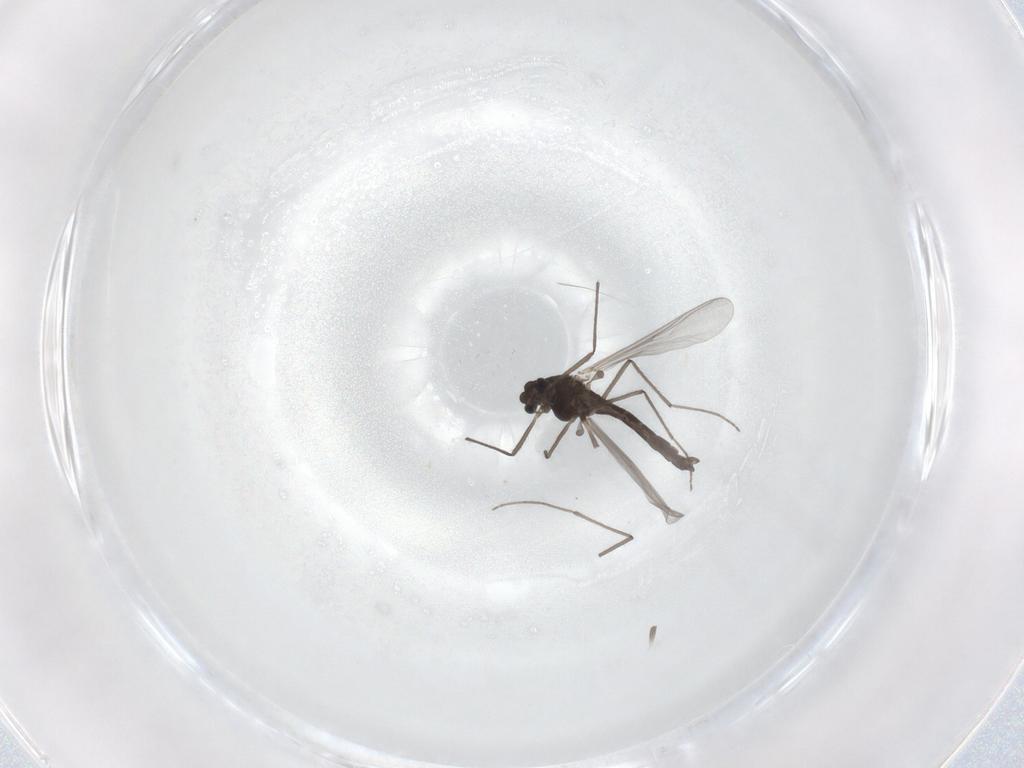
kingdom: Animalia
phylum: Arthropoda
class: Insecta
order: Diptera
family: Chironomidae
